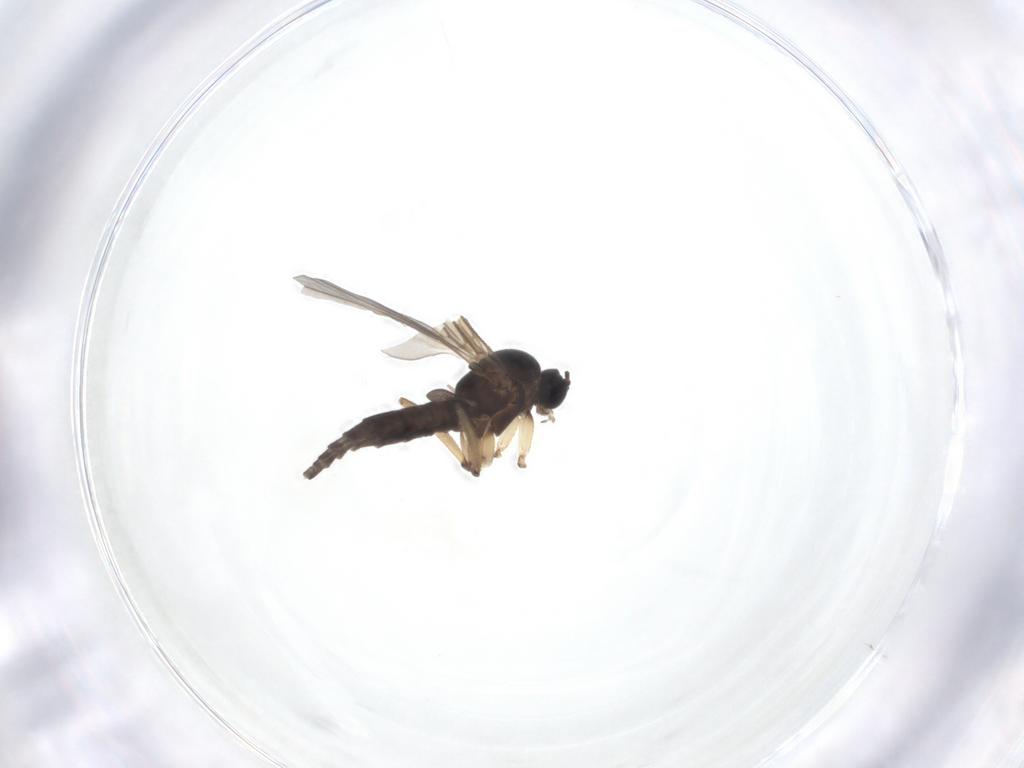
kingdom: Animalia
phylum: Arthropoda
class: Insecta
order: Diptera
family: Sciaridae
